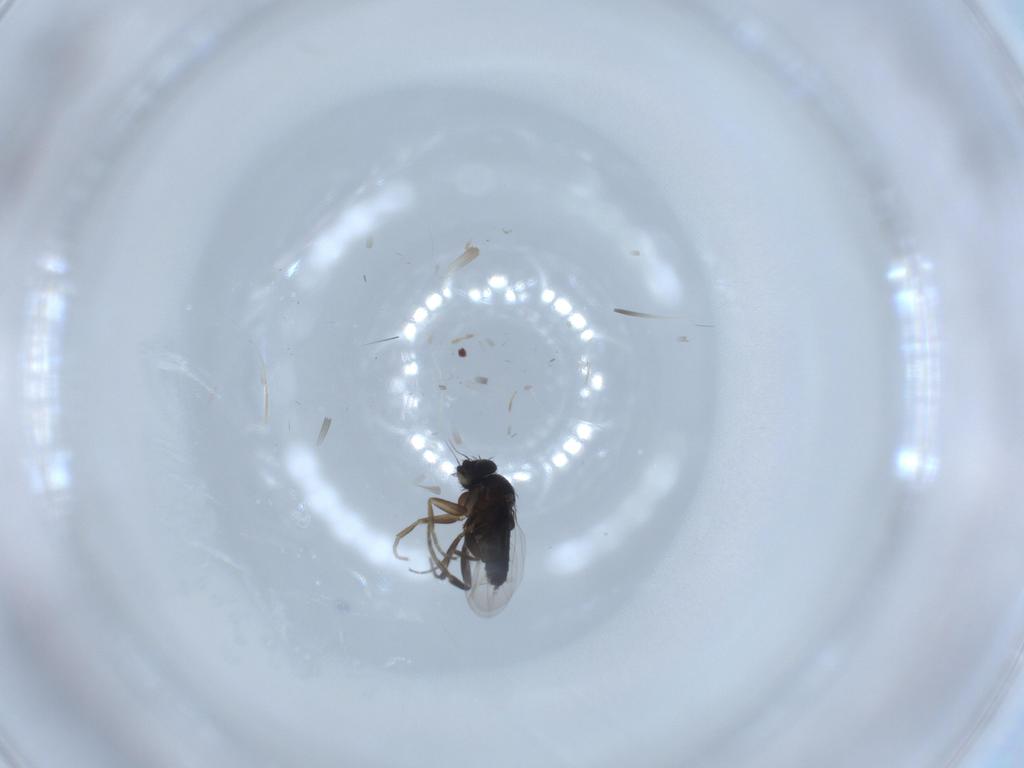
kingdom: Animalia
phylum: Arthropoda
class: Insecta
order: Diptera
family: Phoridae
